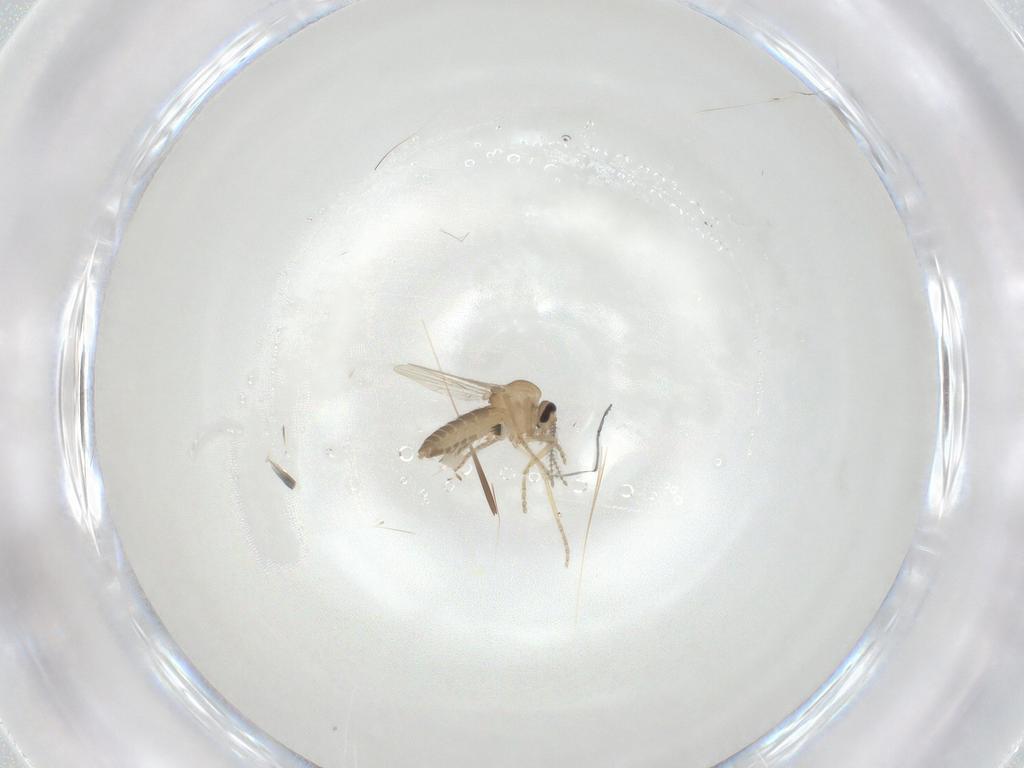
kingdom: Animalia
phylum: Arthropoda
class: Insecta
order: Diptera
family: Ceratopogonidae
